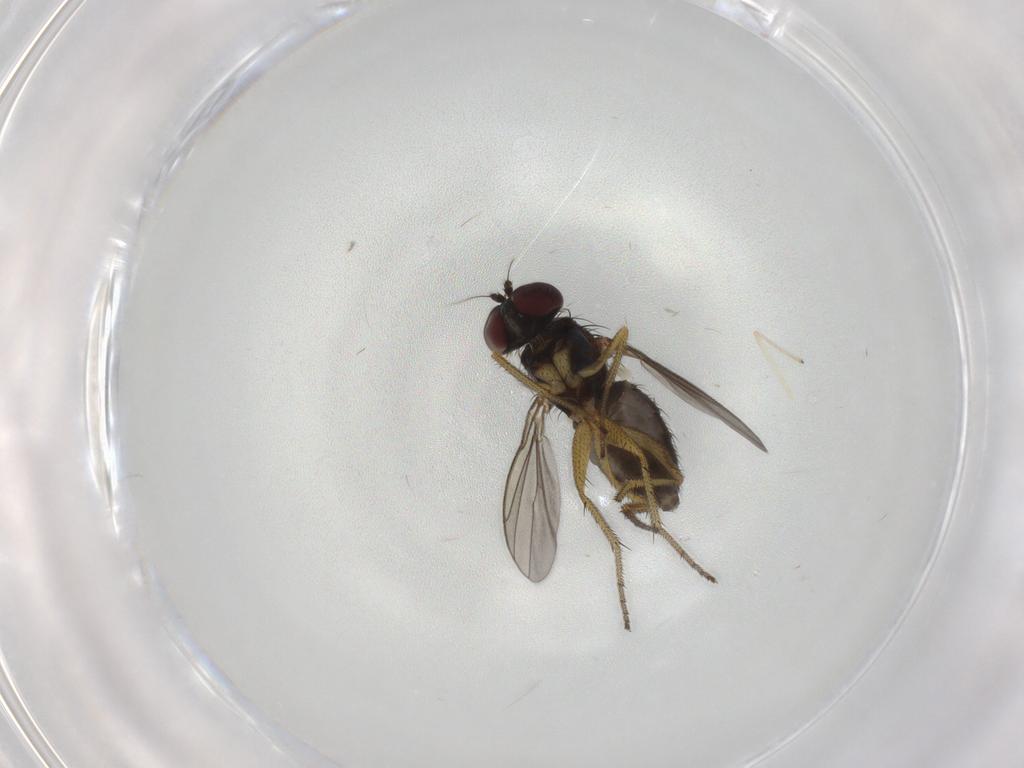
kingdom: Animalia
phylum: Arthropoda
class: Insecta
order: Diptera
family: Dolichopodidae
